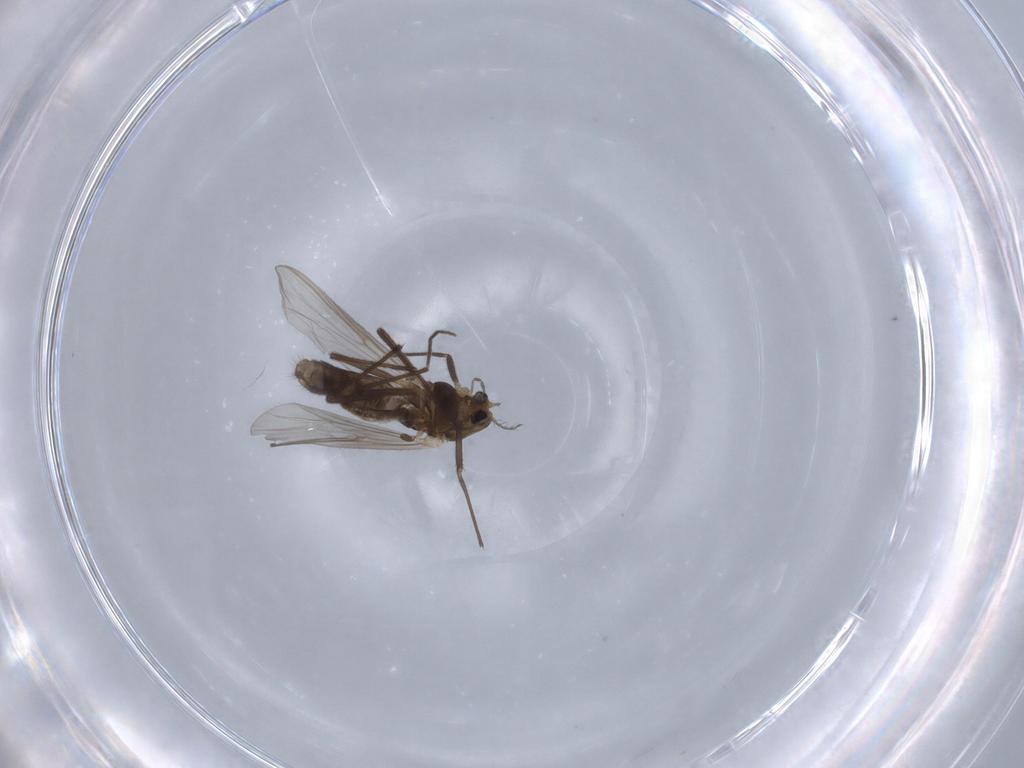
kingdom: Animalia
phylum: Arthropoda
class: Insecta
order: Diptera
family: Chironomidae
